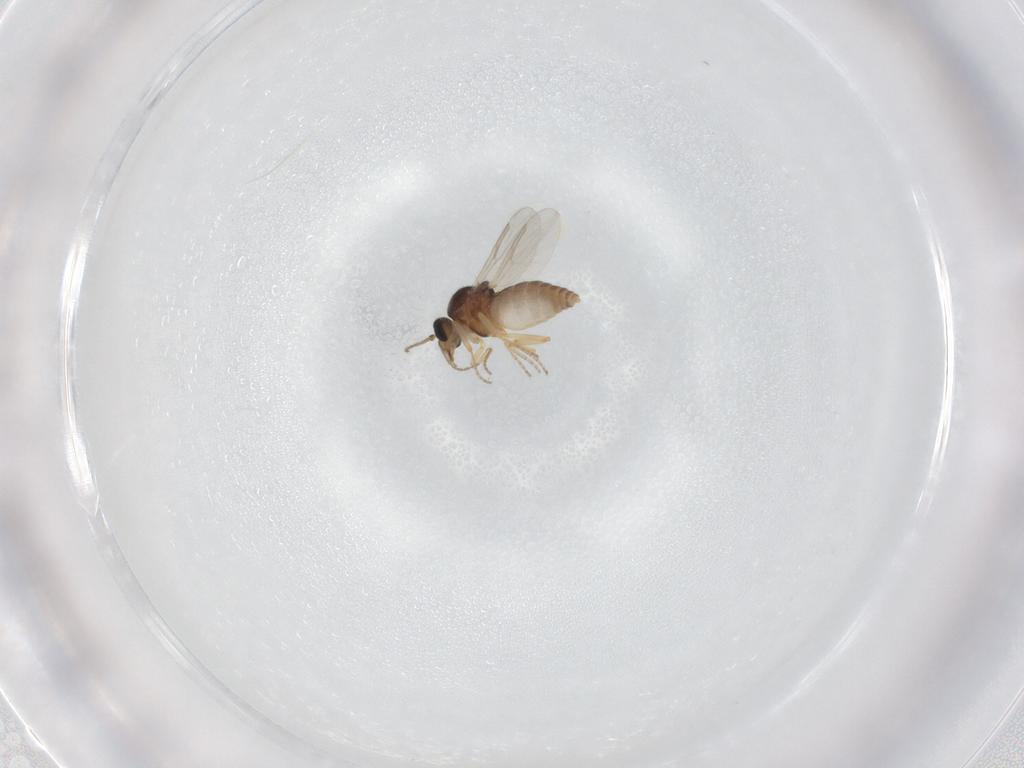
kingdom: Animalia
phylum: Arthropoda
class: Insecta
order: Diptera
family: Ceratopogonidae
